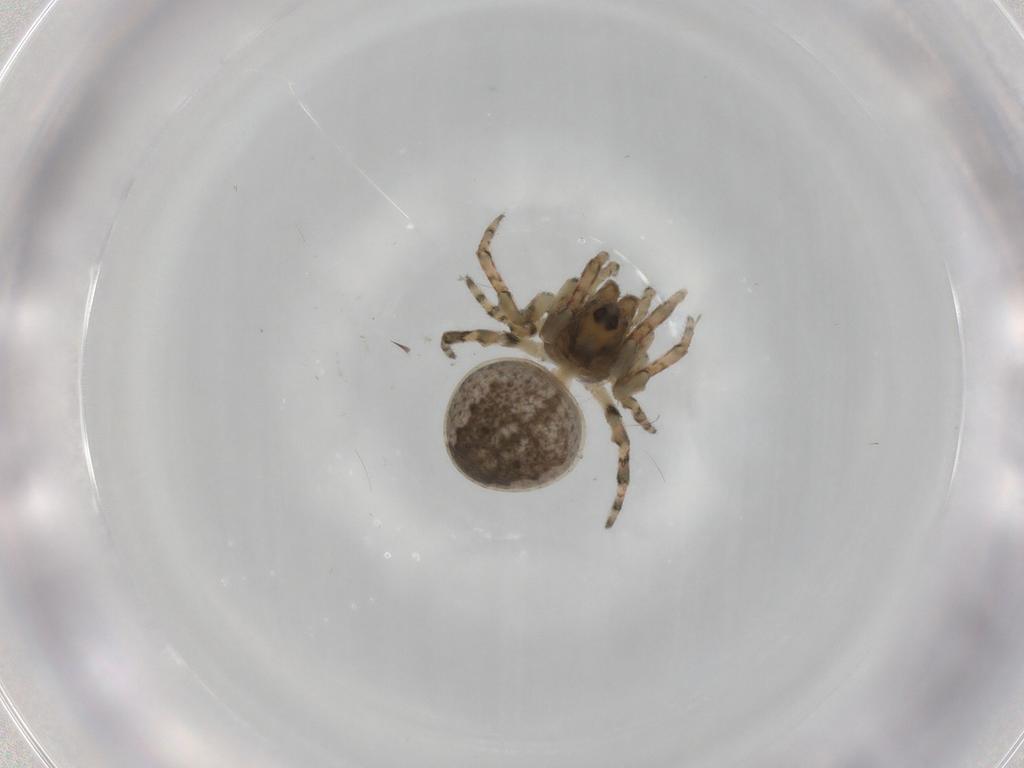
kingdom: Animalia
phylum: Arthropoda
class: Arachnida
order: Araneae
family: Araneidae
